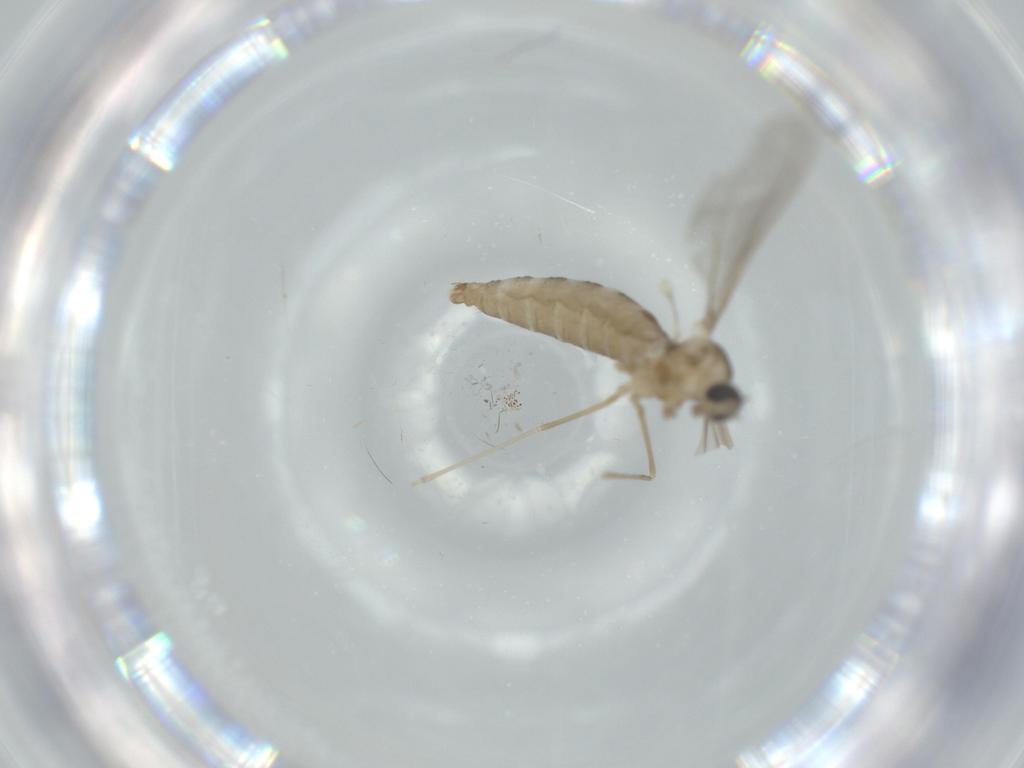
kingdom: Animalia
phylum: Arthropoda
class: Insecta
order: Diptera
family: Cecidomyiidae
